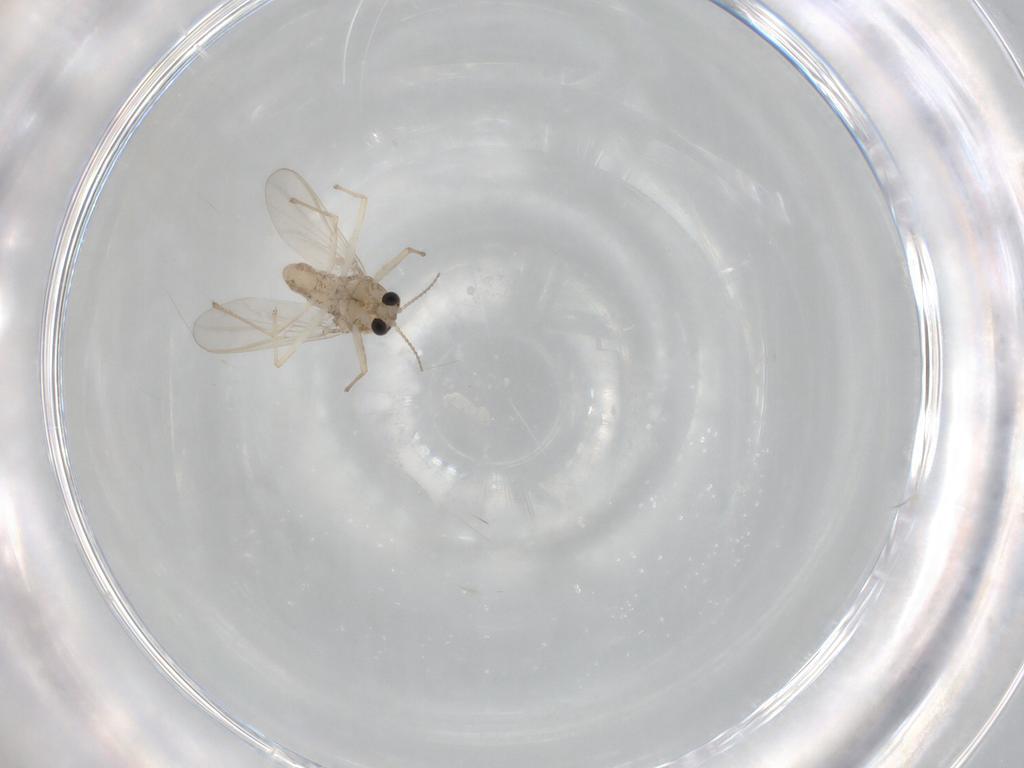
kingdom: Animalia
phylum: Arthropoda
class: Insecta
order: Diptera
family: Chironomidae
